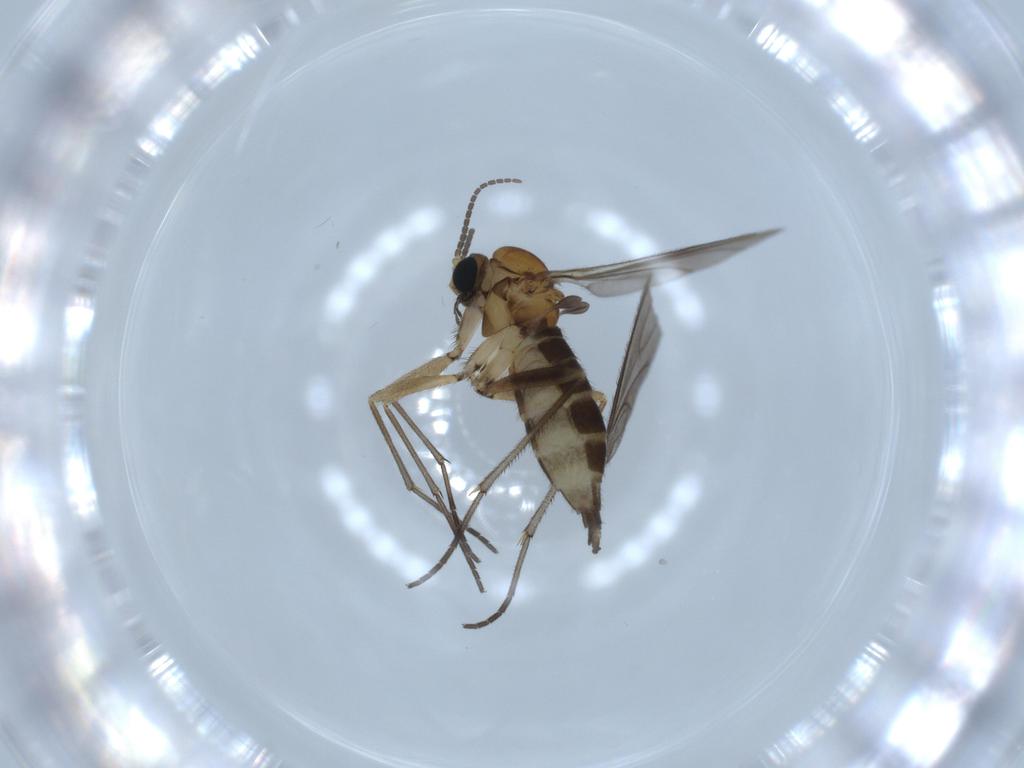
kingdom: Animalia
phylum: Arthropoda
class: Insecta
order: Diptera
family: Sciaridae
